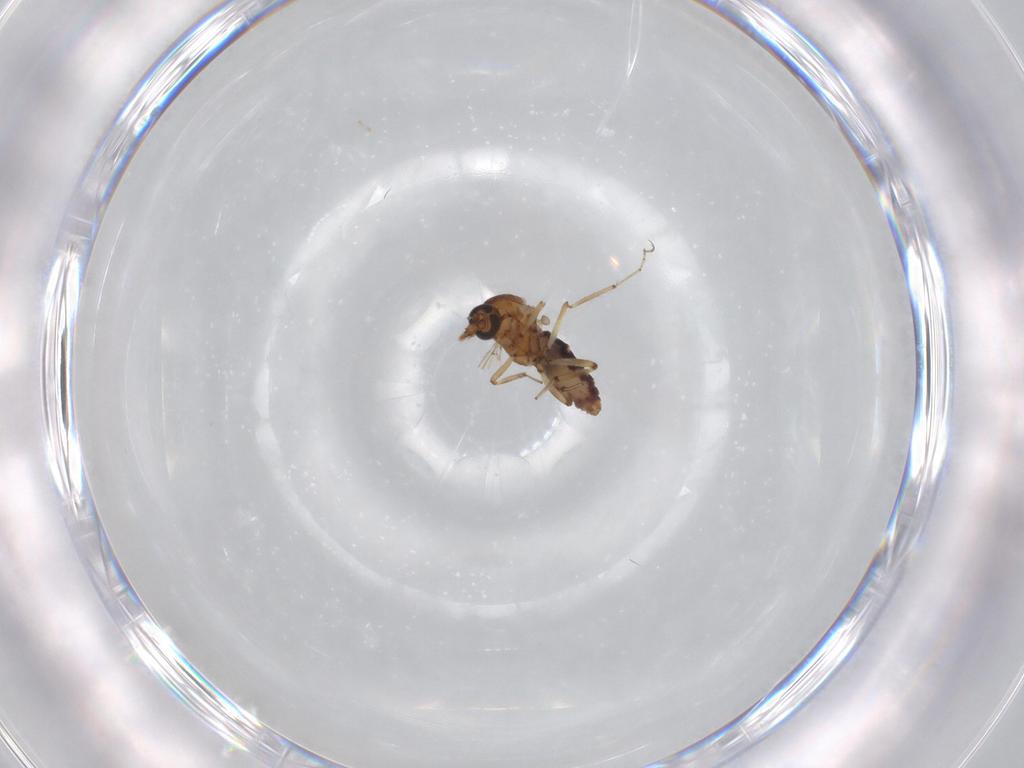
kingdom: Animalia
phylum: Arthropoda
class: Insecta
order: Diptera
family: Ceratopogonidae
